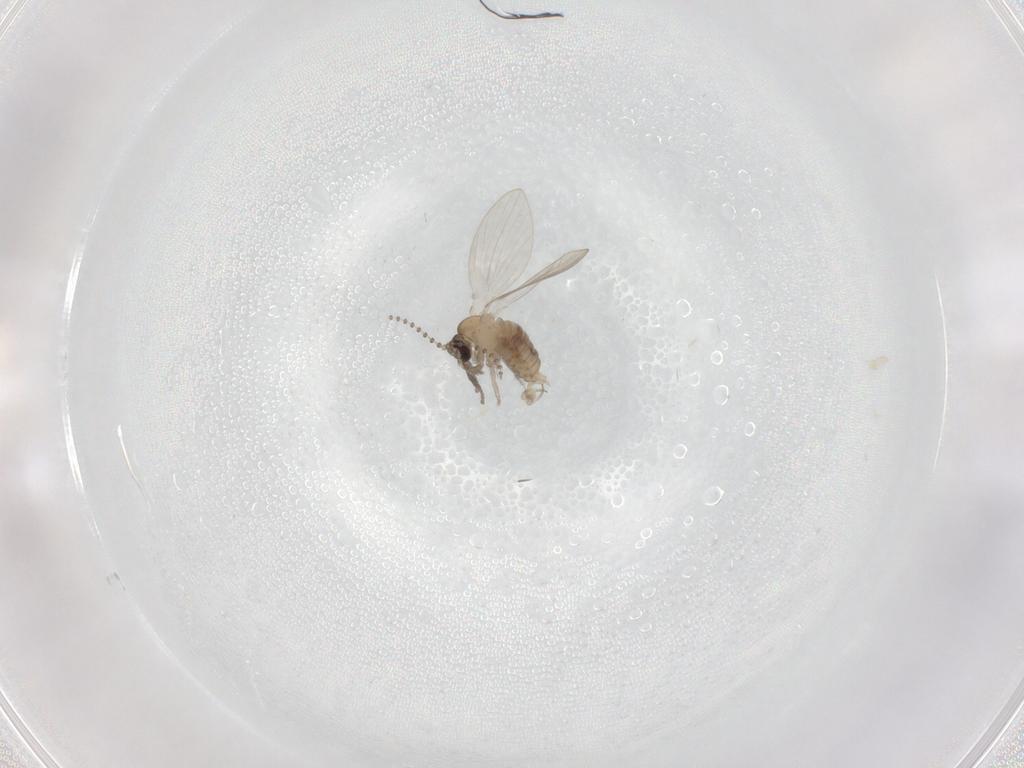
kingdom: Animalia
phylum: Arthropoda
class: Insecta
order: Diptera
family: Psychodidae
